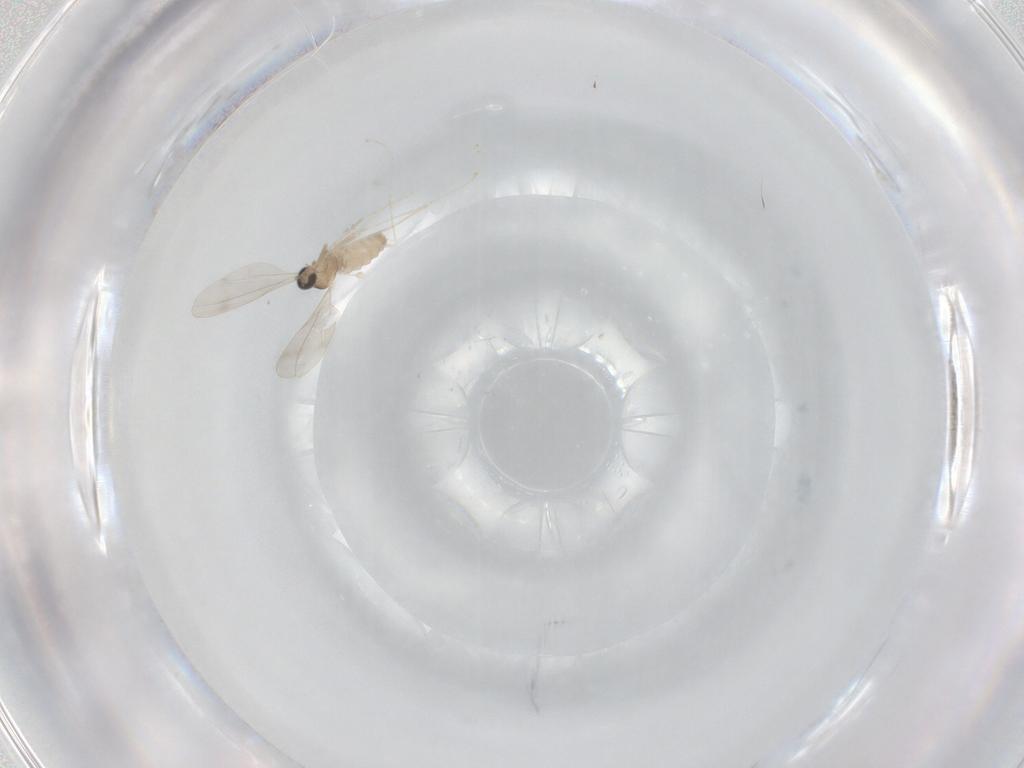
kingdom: Animalia
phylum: Arthropoda
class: Insecta
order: Diptera
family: Cecidomyiidae
